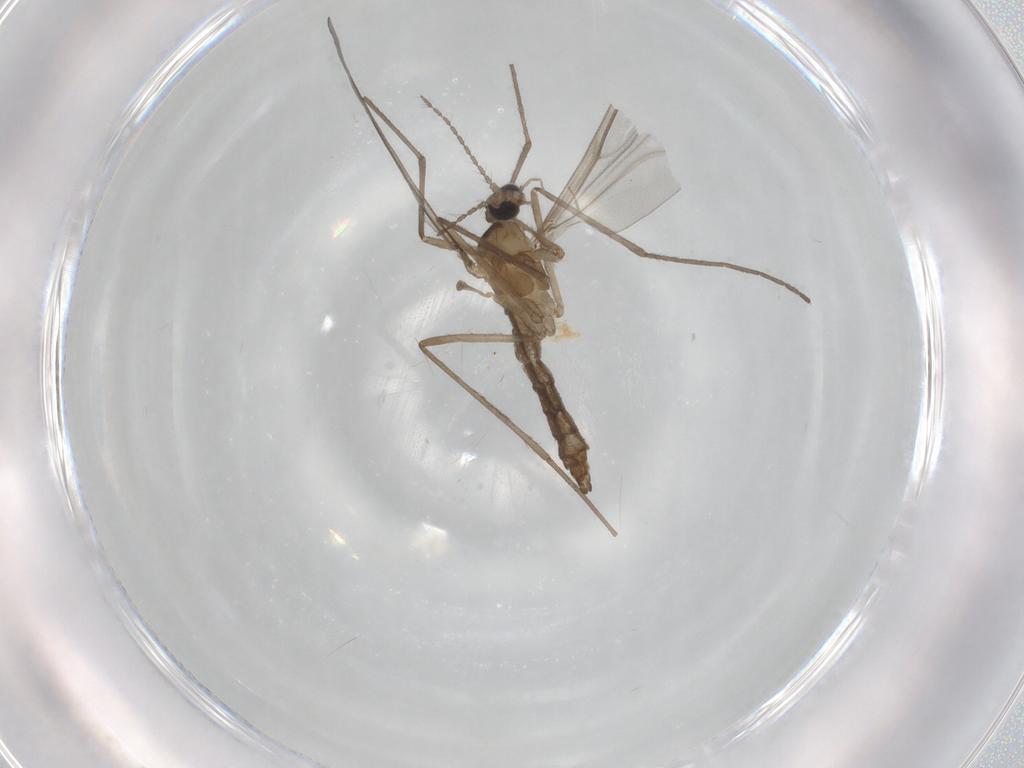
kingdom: Animalia
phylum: Arthropoda
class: Insecta
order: Diptera
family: Cecidomyiidae
